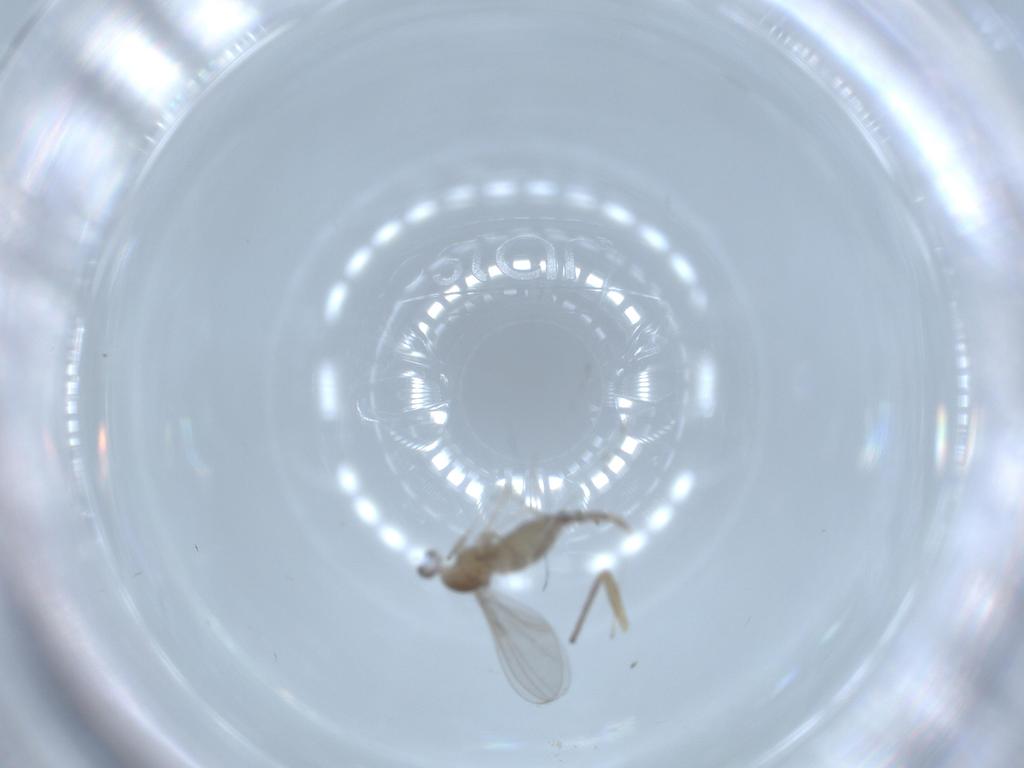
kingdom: Animalia
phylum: Arthropoda
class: Insecta
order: Diptera
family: Cecidomyiidae
